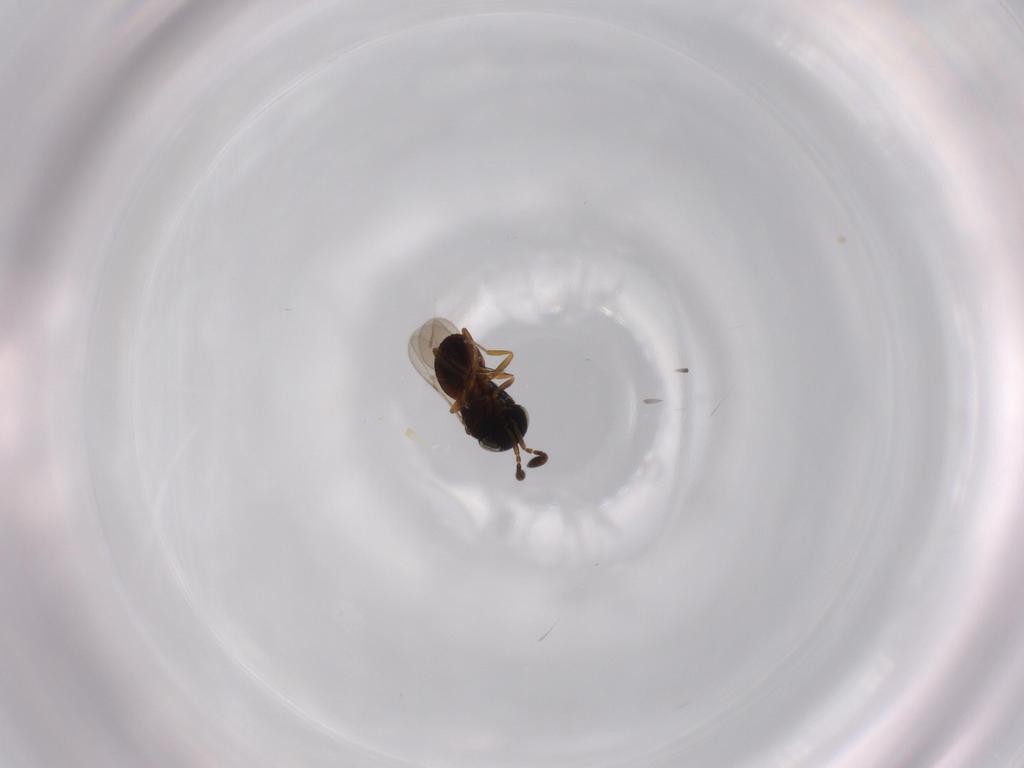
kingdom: Animalia
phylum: Arthropoda
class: Insecta
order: Coleoptera
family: Curculionidae
